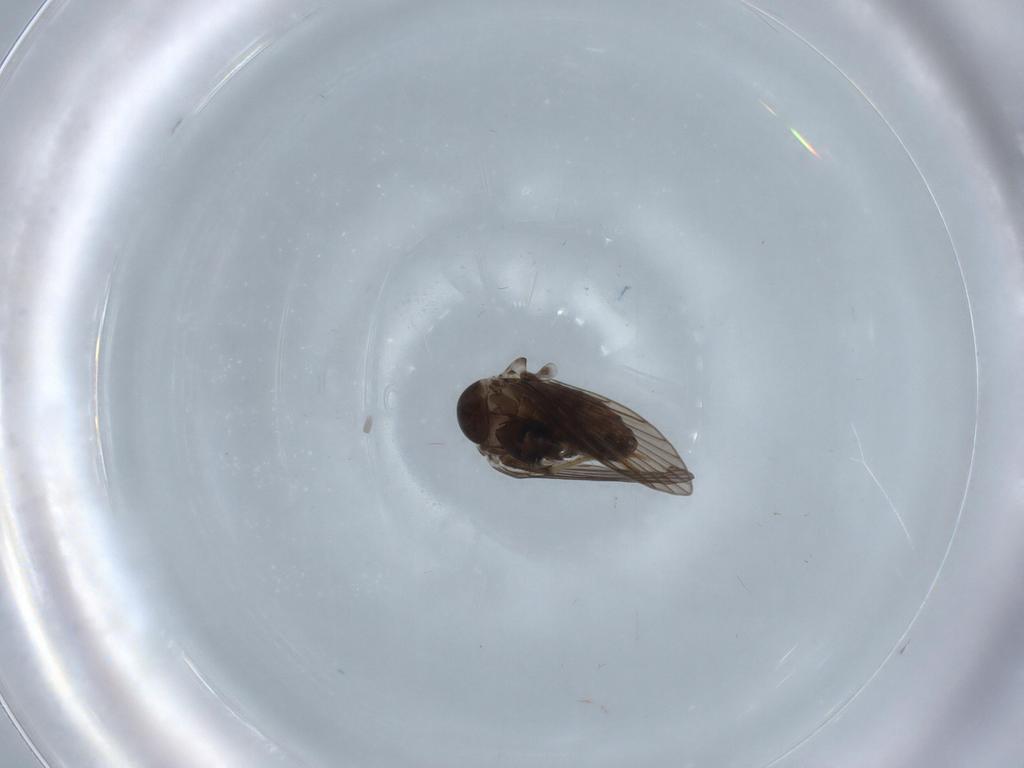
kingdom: Animalia
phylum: Arthropoda
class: Insecta
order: Diptera
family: Psychodidae
